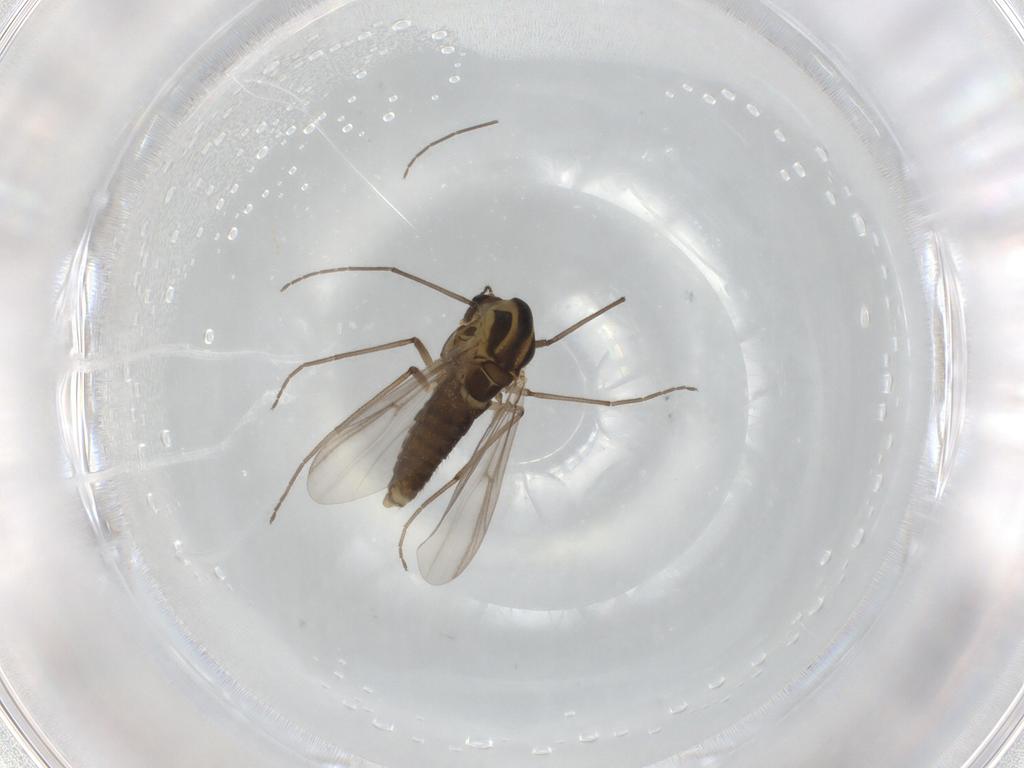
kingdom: Animalia
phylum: Arthropoda
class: Insecta
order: Diptera
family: Chironomidae
